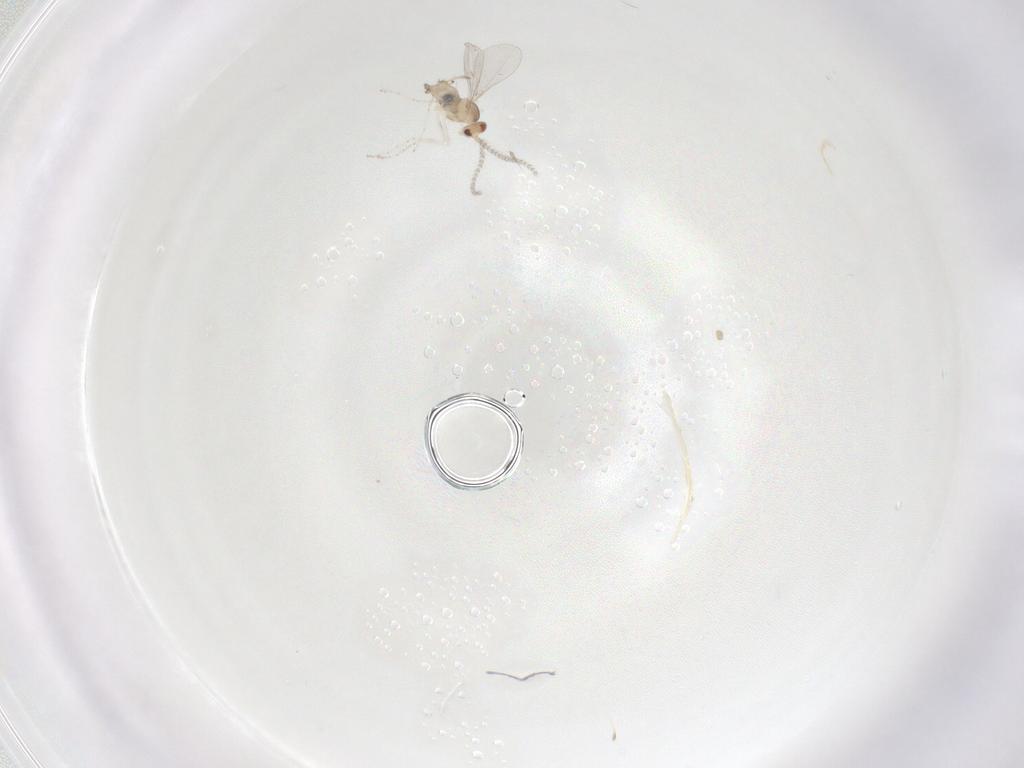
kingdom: Animalia
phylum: Arthropoda
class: Insecta
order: Diptera
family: Cecidomyiidae
